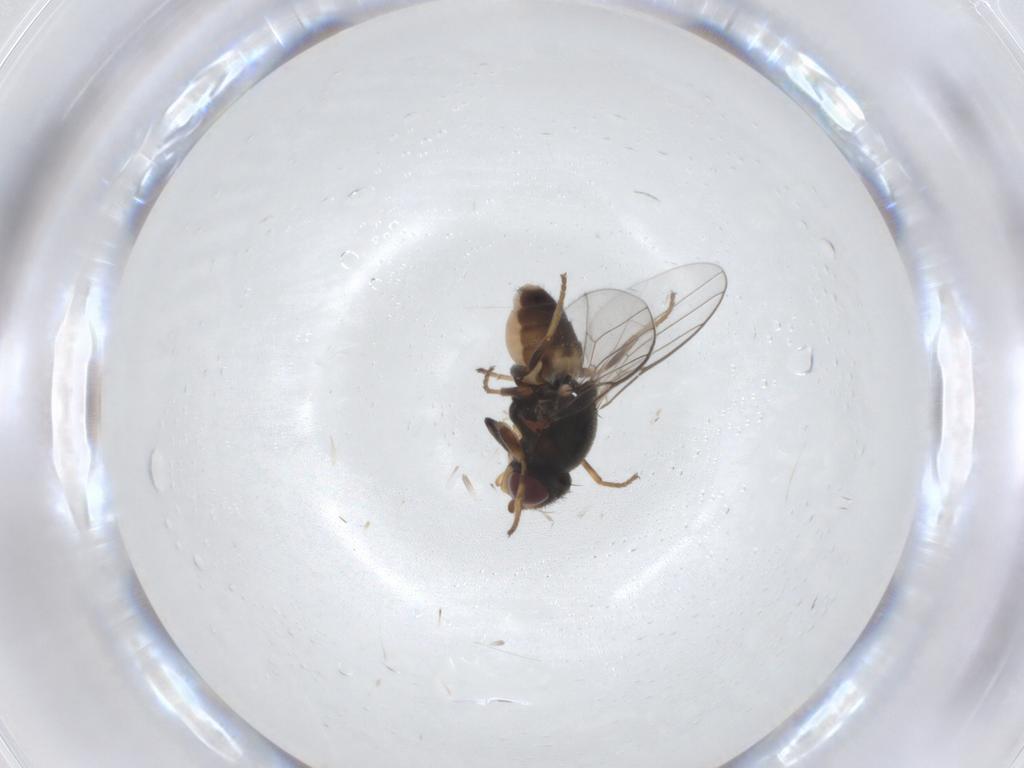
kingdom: Animalia
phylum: Arthropoda
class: Insecta
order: Diptera
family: Chloropidae
